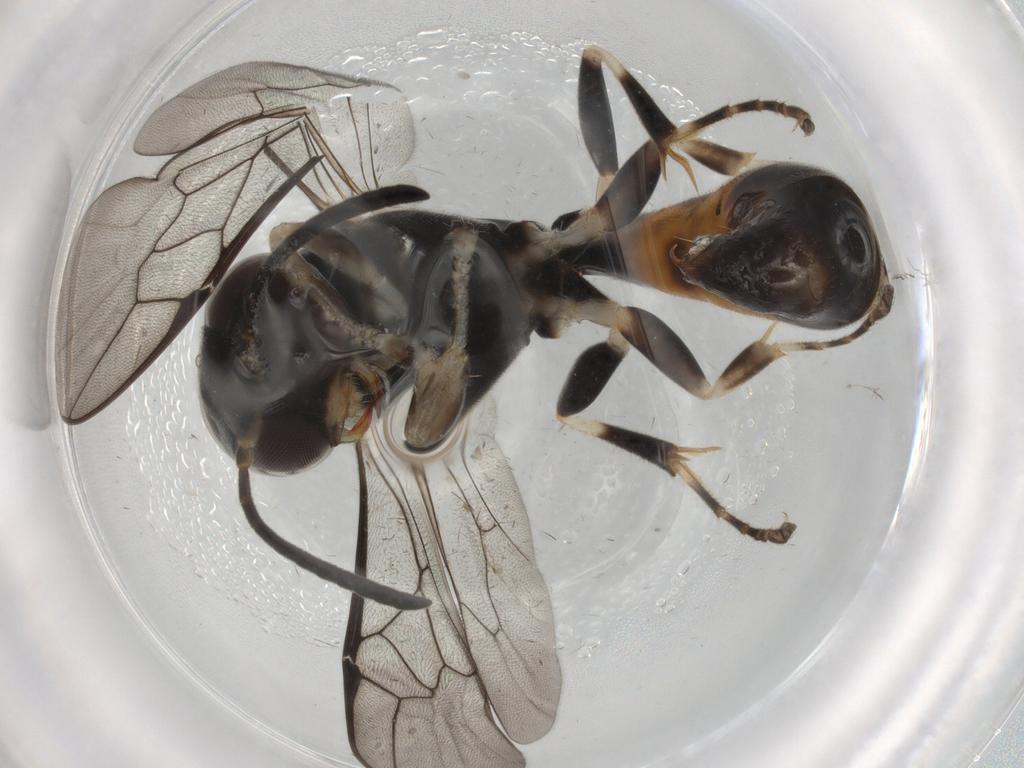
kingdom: Animalia
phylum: Arthropoda
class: Insecta
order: Hymenoptera
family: Crabronidae
